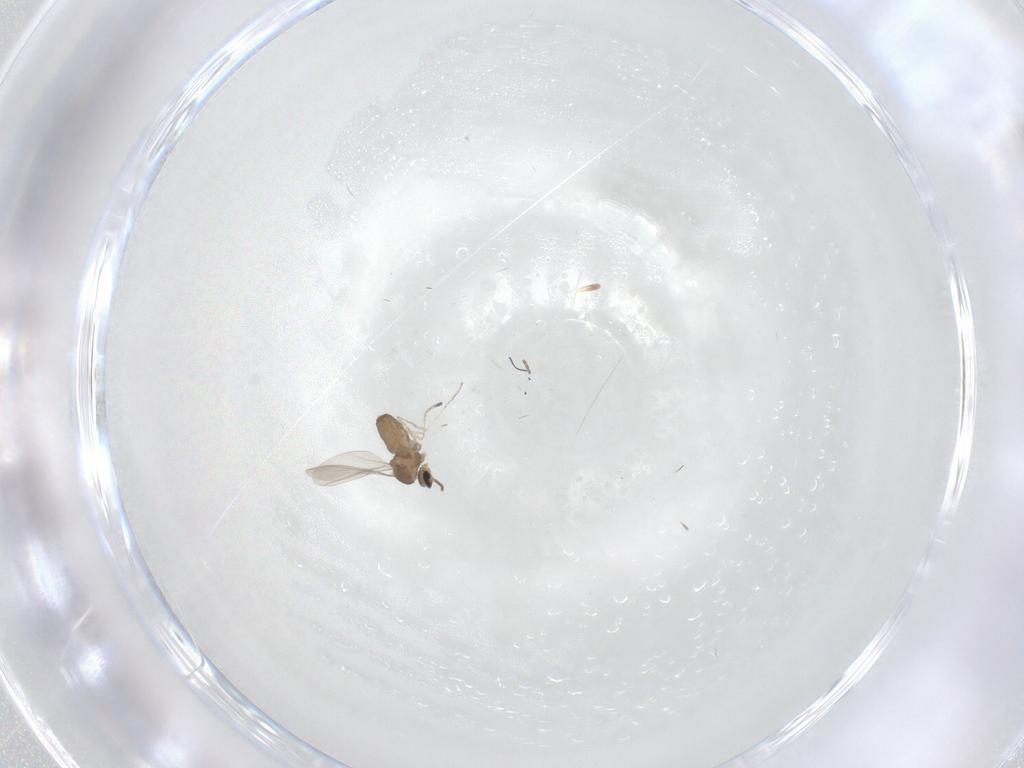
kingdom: Animalia
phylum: Arthropoda
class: Insecta
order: Diptera
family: Cecidomyiidae
